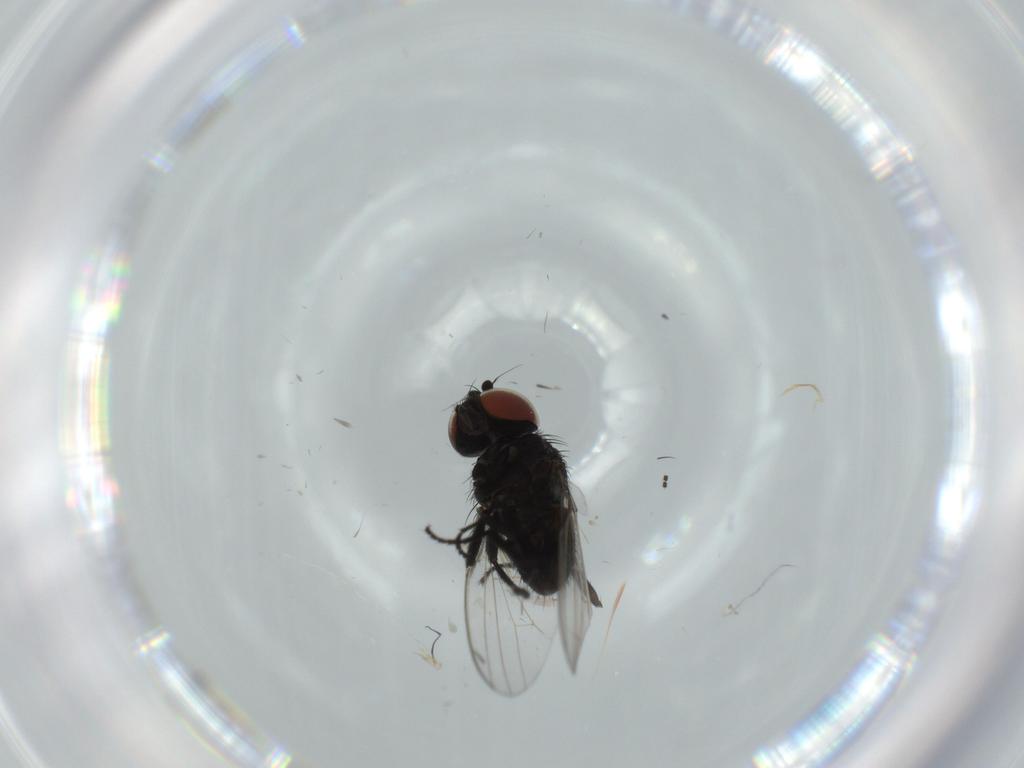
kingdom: Animalia
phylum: Arthropoda
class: Insecta
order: Diptera
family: Milichiidae
